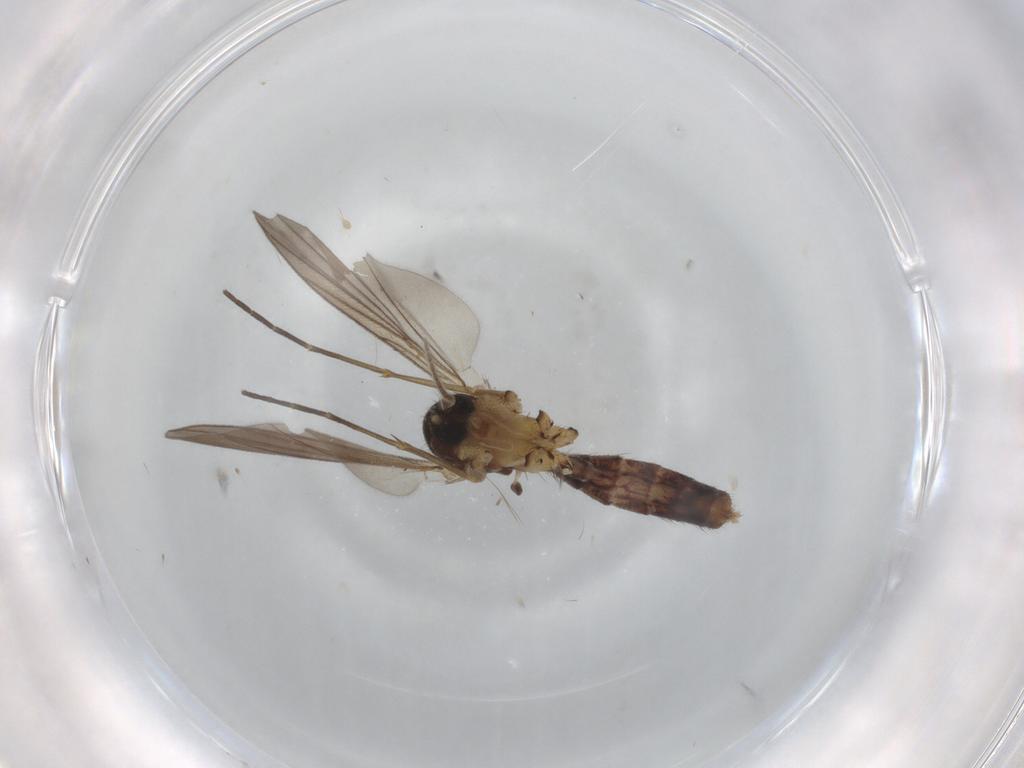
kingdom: Animalia
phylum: Arthropoda
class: Insecta
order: Diptera
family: Mycetophilidae
